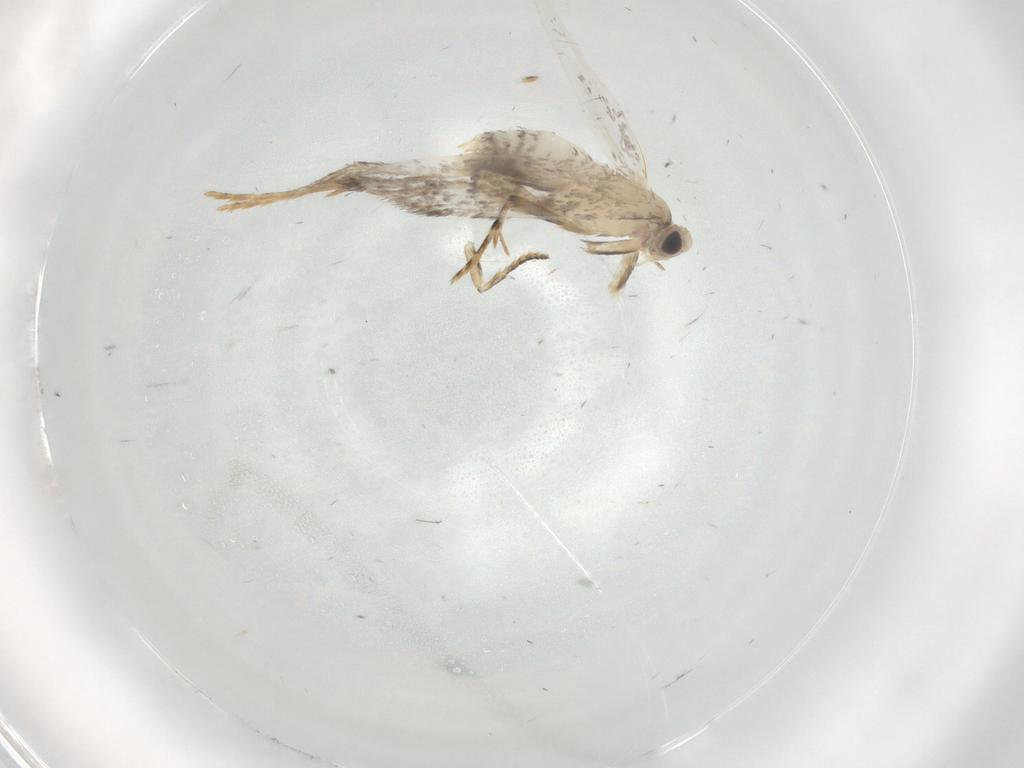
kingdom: Animalia
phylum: Arthropoda
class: Insecta
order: Lepidoptera
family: Tineidae
